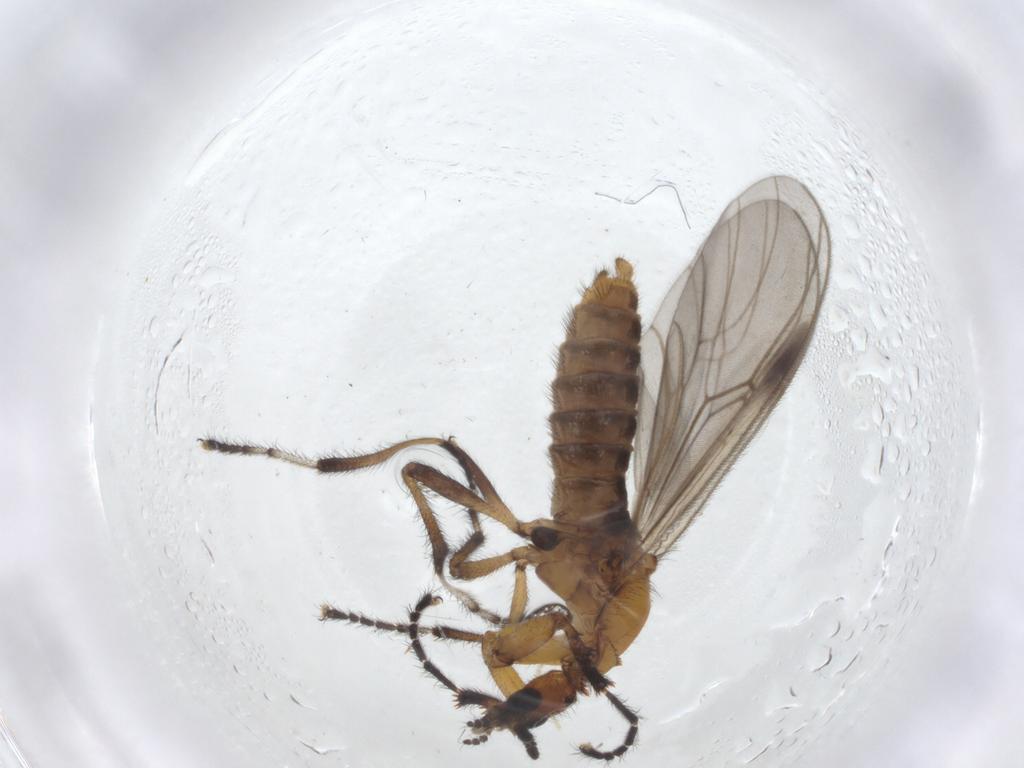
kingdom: Animalia
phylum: Arthropoda
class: Insecta
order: Diptera
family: Bibionidae
